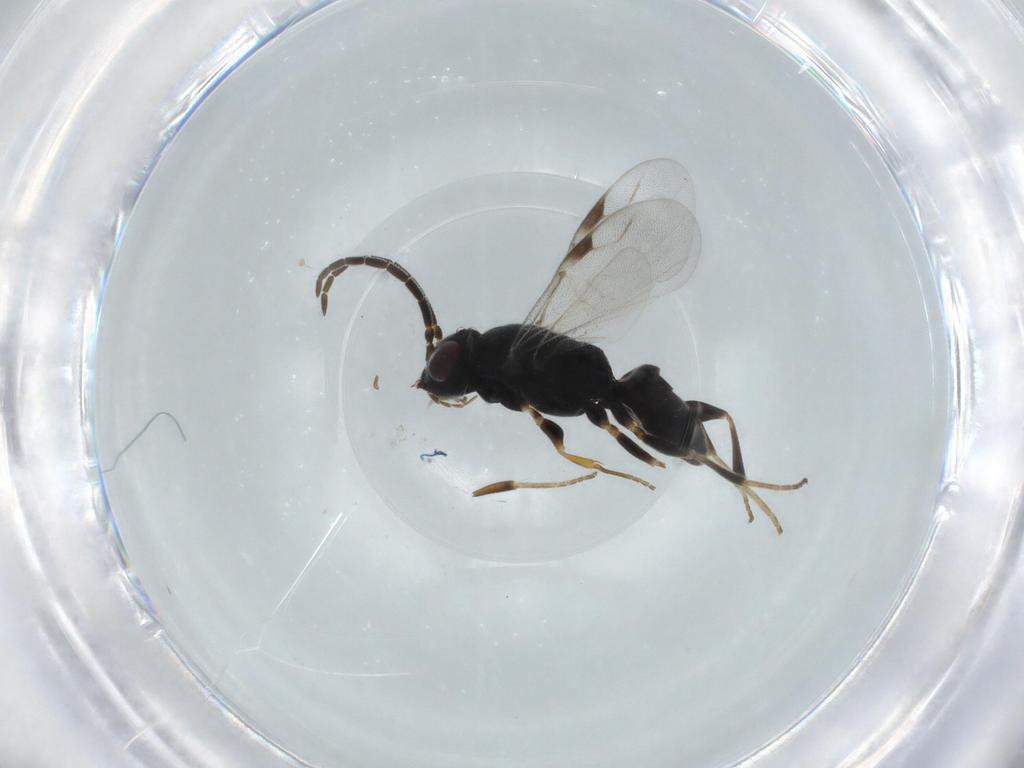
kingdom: Animalia
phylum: Arthropoda
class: Insecta
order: Hymenoptera
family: Dryinidae
